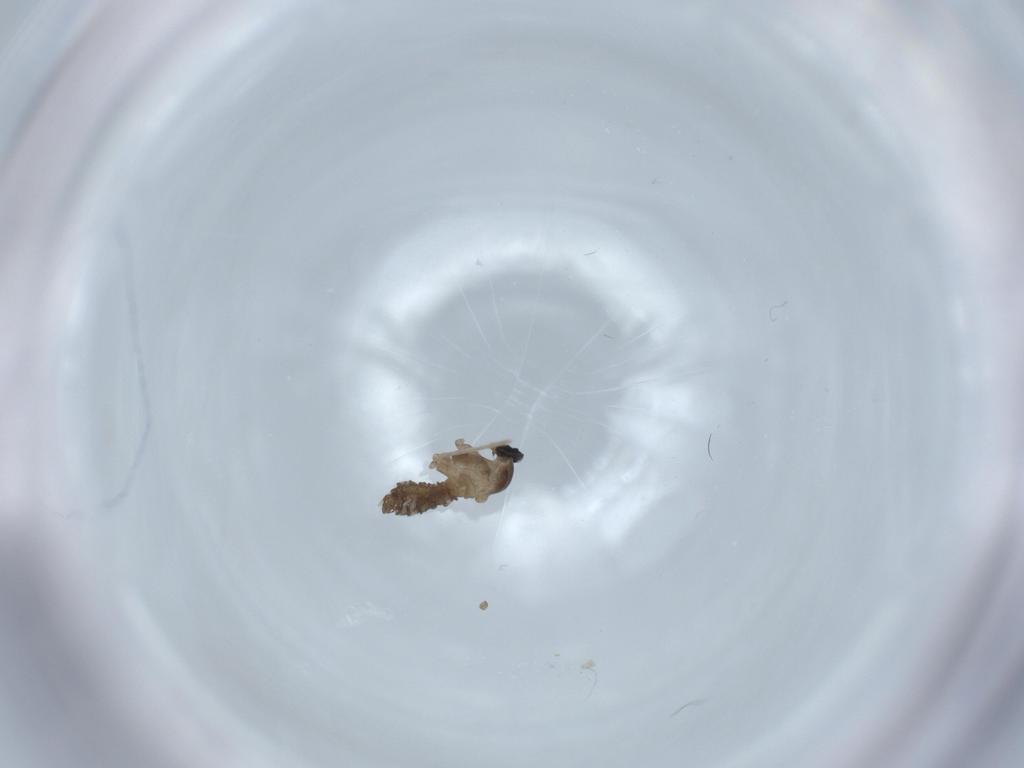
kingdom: Animalia
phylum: Arthropoda
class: Insecta
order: Diptera
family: Cecidomyiidae
